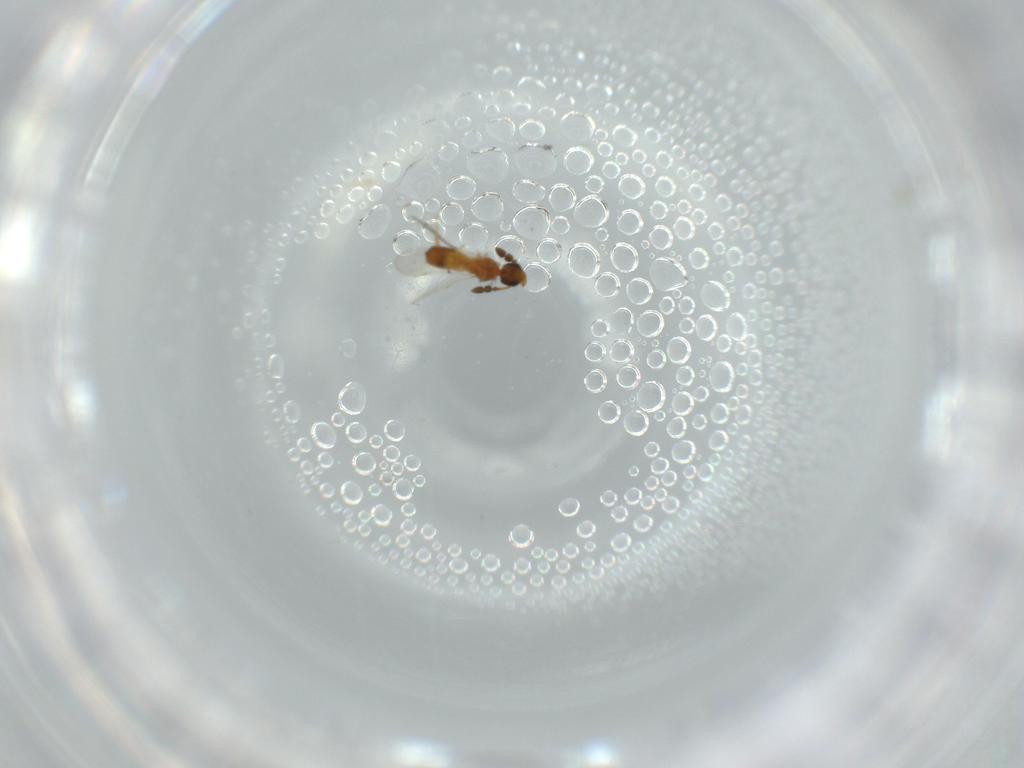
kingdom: Animalia
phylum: Arthropoda
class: Insecta
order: Hymenoptera
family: Diapriidae
